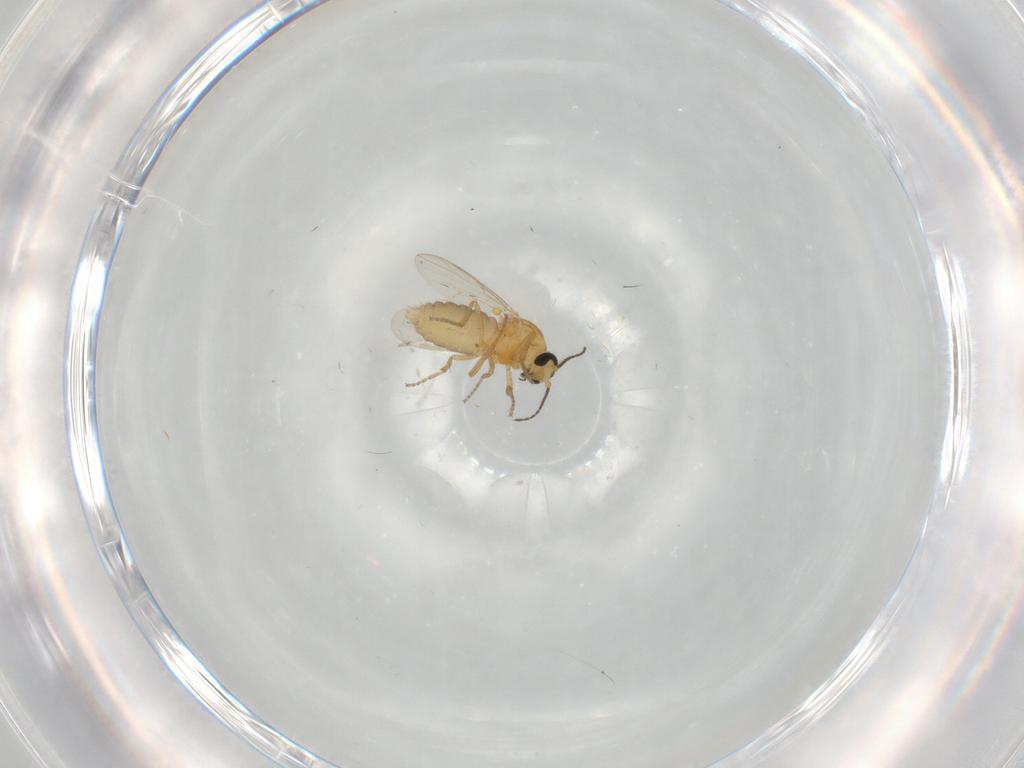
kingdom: Animalia
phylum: Arthropoda
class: Insecta
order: Diptera
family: Ceratopogonidae
